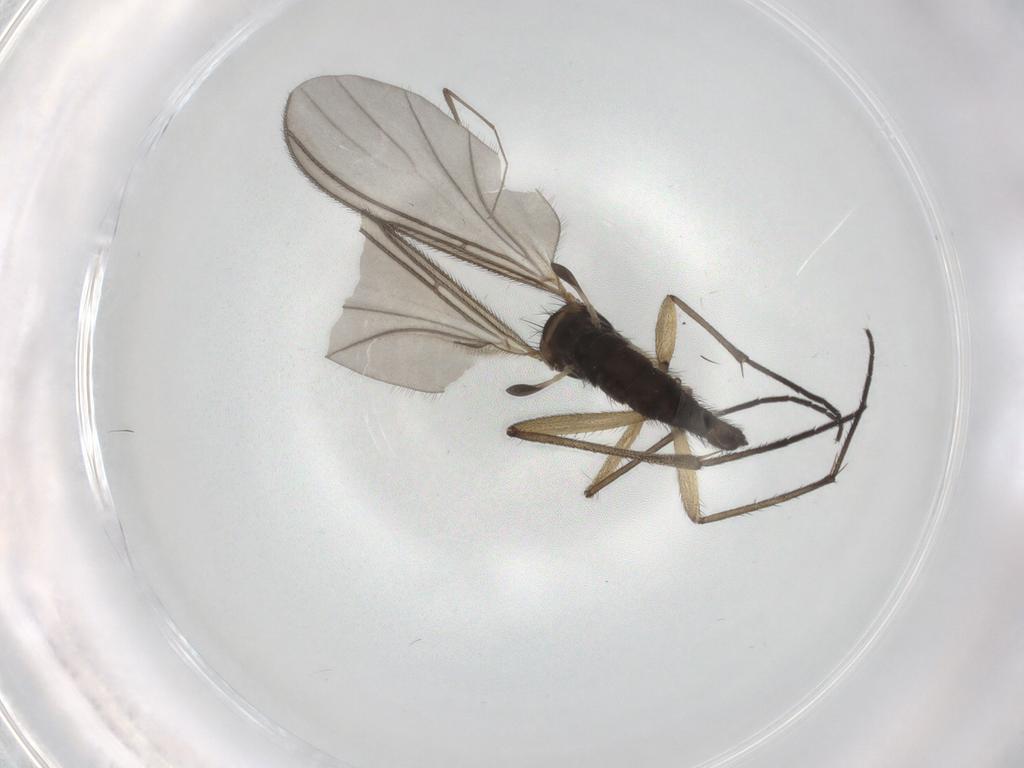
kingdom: Animalia
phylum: Arthropoda
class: Insecta
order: Diptera
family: Sciaridae
